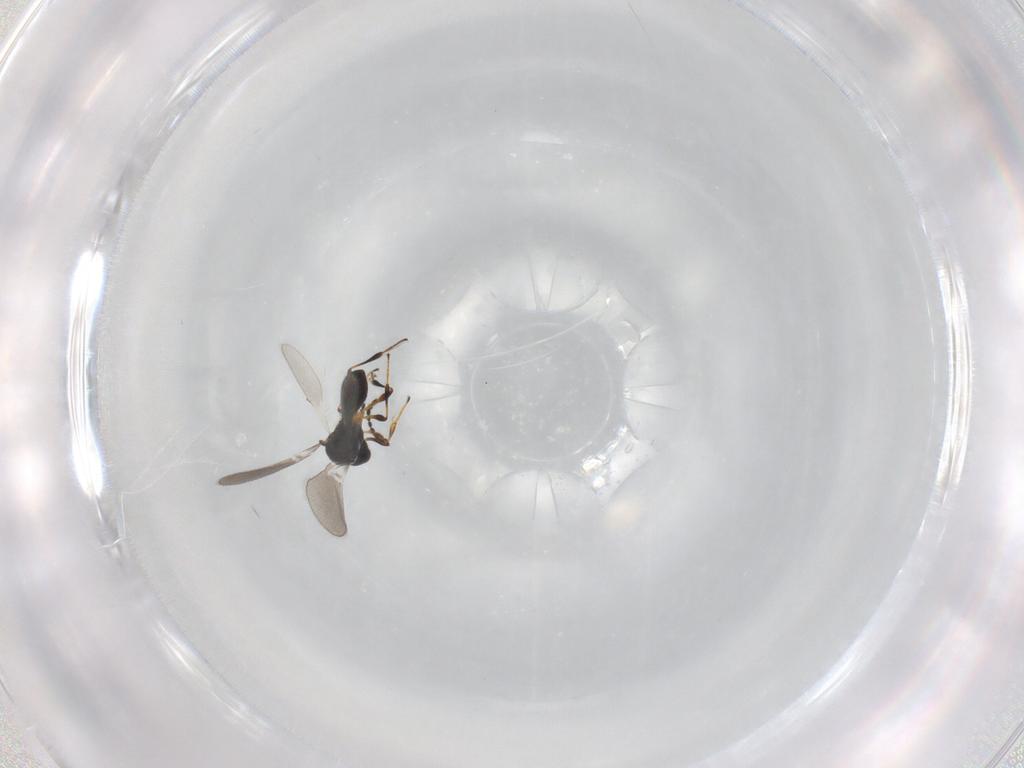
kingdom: Animalia
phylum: Arthropoda
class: Insecta
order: Hymenoptera
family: Platygastridae
